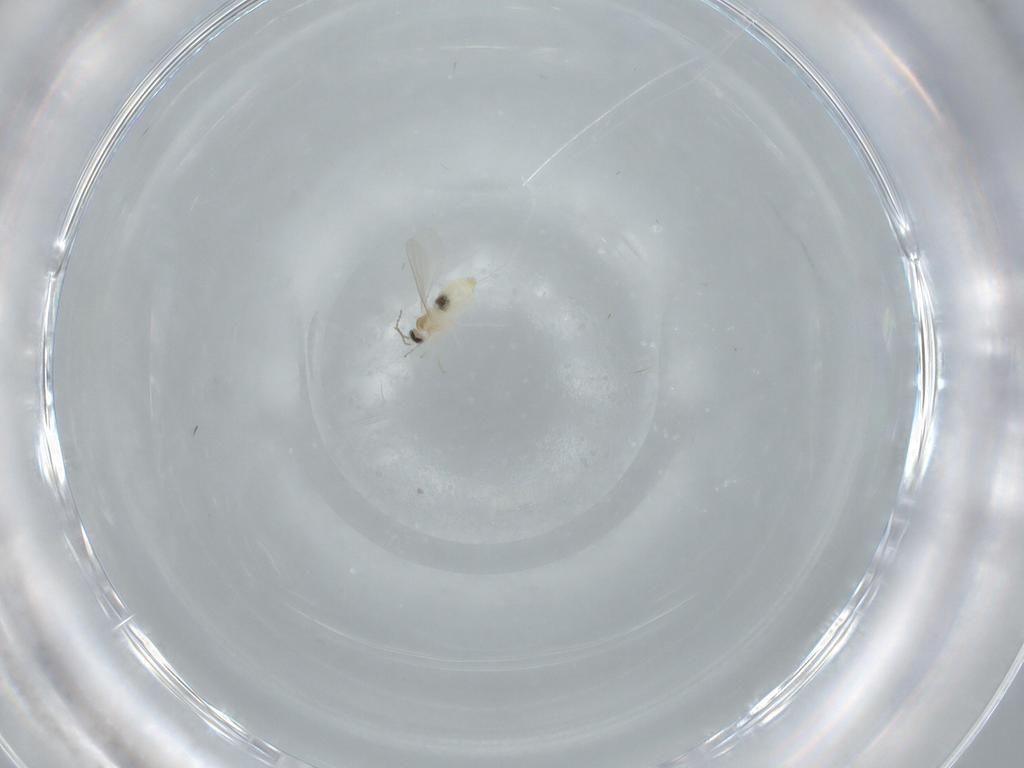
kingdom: Animalia
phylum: Arthropoda
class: Insecta
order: Diptera
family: Cecidomyiidae
